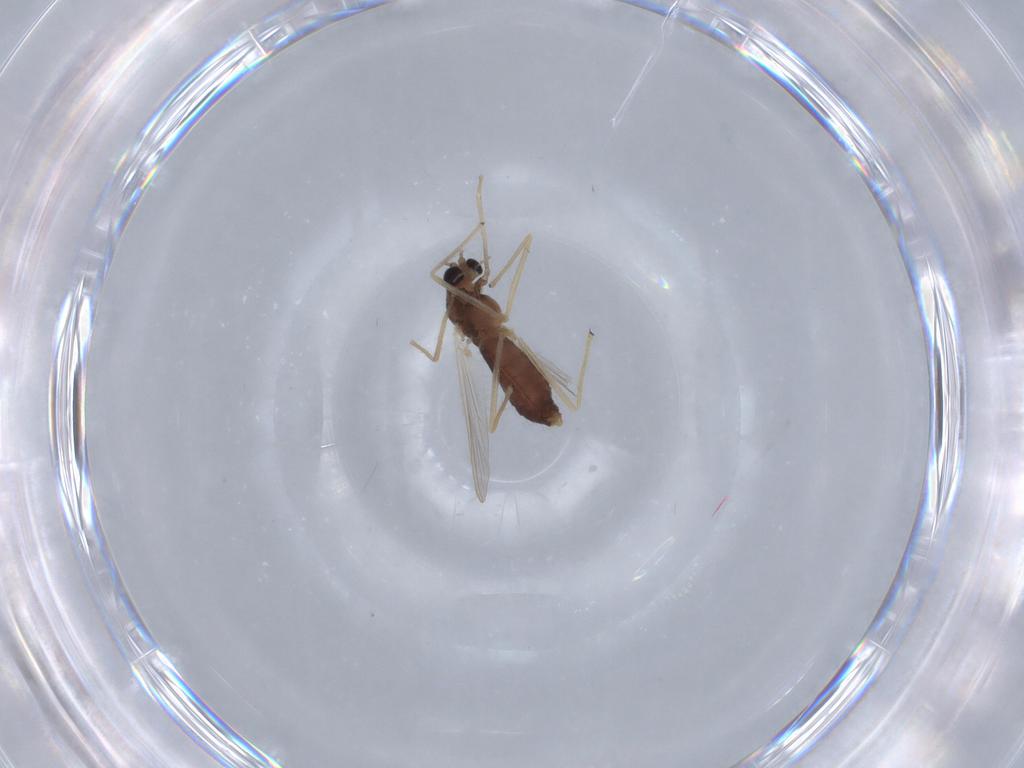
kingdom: Animalia
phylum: Arthropoda
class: Insecta
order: Diptera
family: Chironomidae
